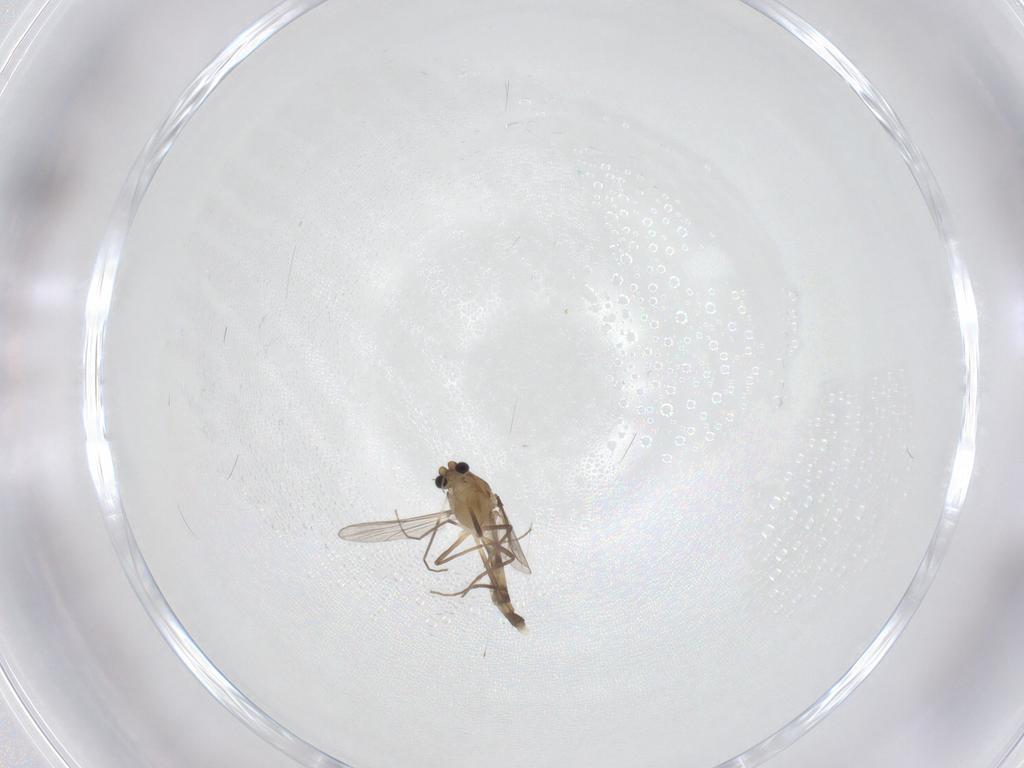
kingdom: Animalia
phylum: Arthropoda
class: Insecta
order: Diptera
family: Chironomidae
